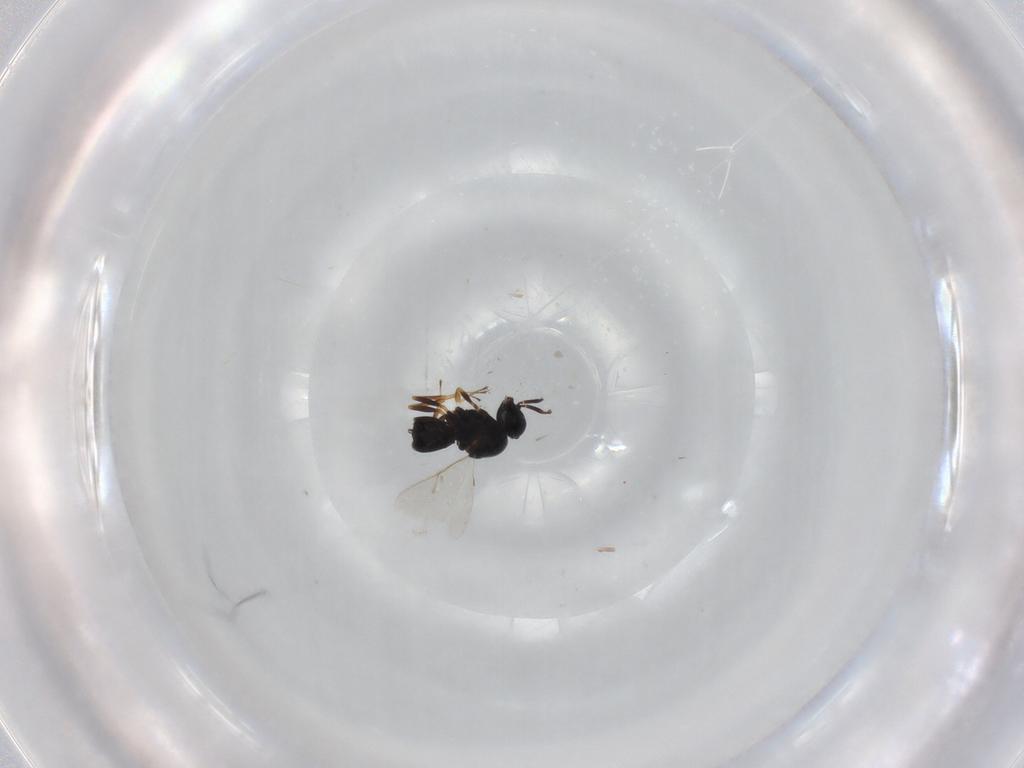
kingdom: Animalia
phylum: Arthropoda
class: Insecta
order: Hymenoptera
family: Scelionidae
